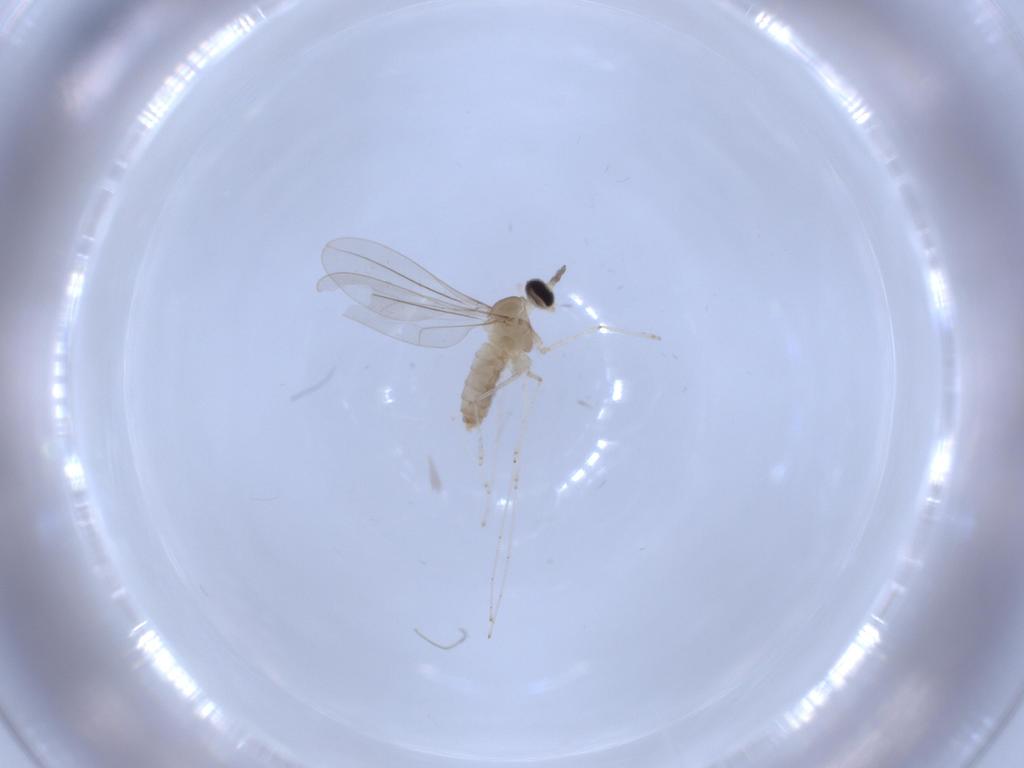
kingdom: Animalia
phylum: Arthropoda
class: Insecta
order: Diptera
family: Cecidomyiidae
